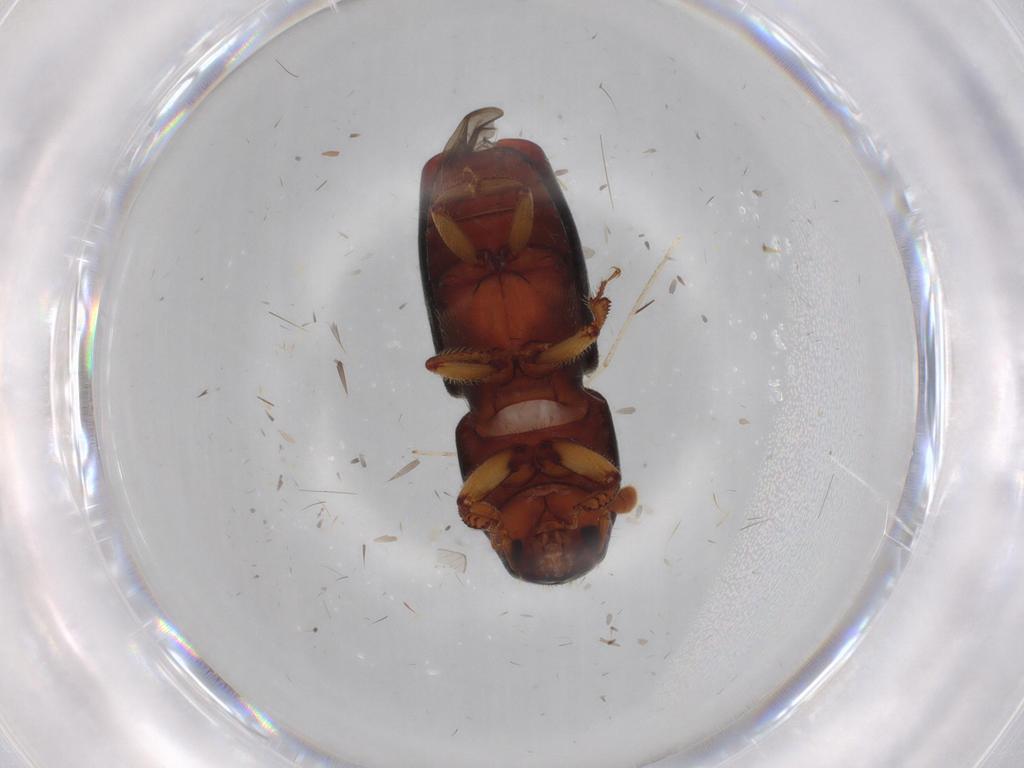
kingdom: Animalia
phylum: Arthropoda
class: Insecta
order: Coleoptera
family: Curculionidae
